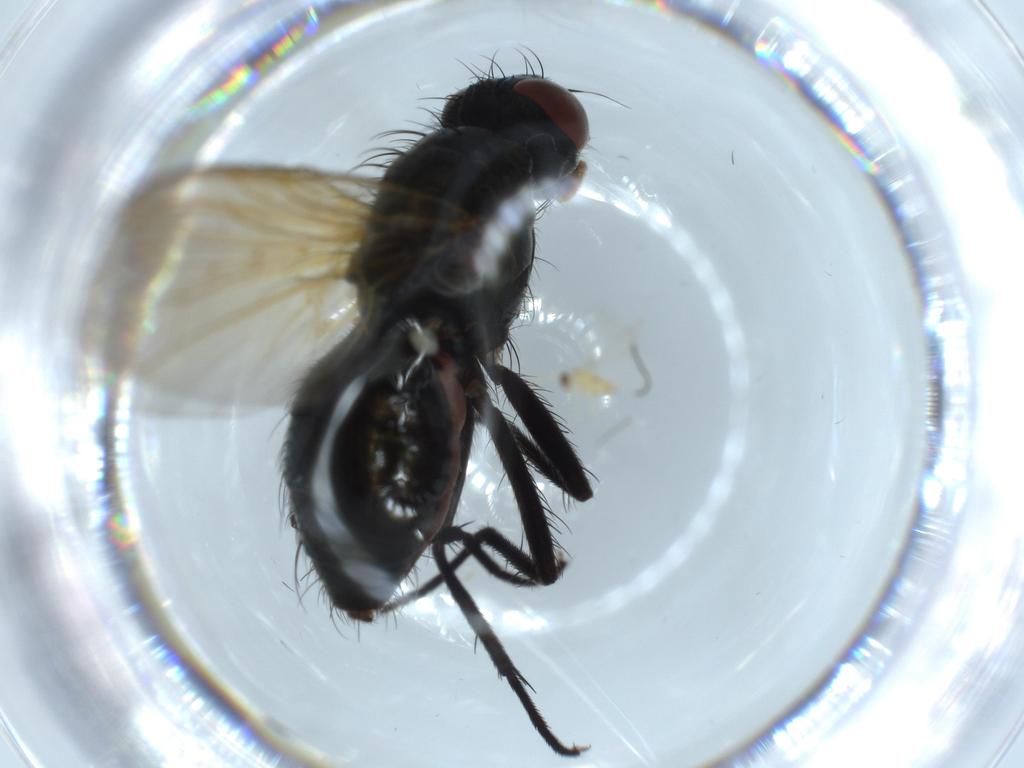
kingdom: Animalia
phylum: Arthropoda
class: Insecta
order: Diptera
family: Sciaridae
